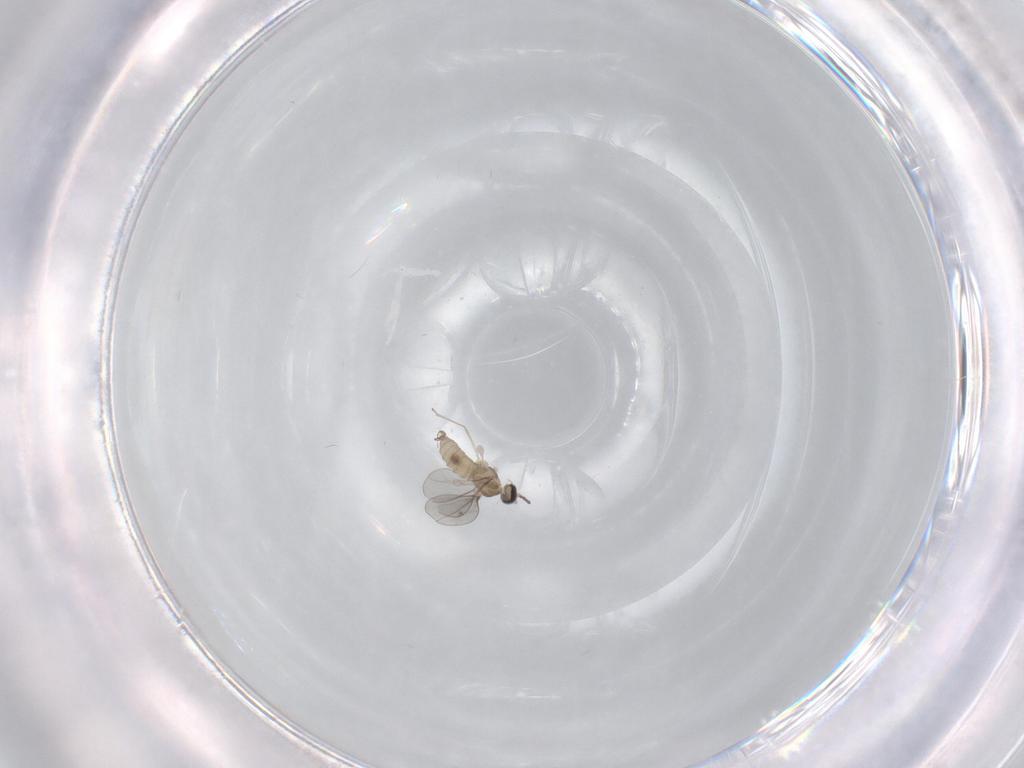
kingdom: Animalia
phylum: Arthropoda
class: Insecta
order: Diptera
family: Cecidomyiidae
